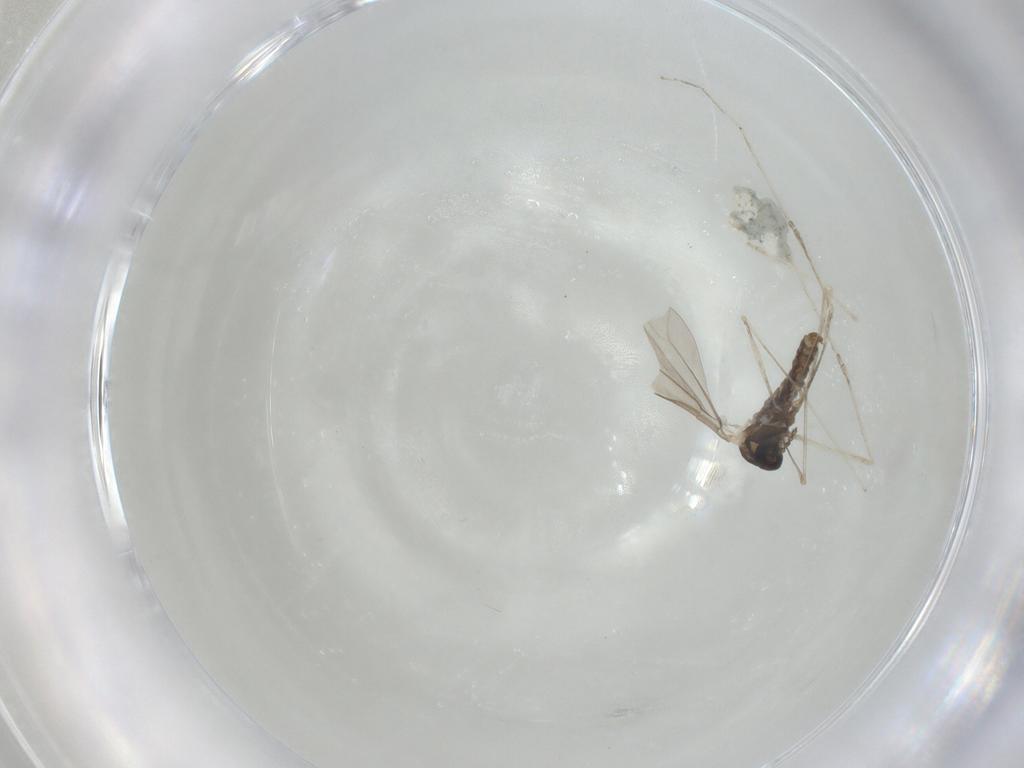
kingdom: Animalia
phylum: Arthropoda
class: Insecta
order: Diptera
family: Cecidomyiidae
